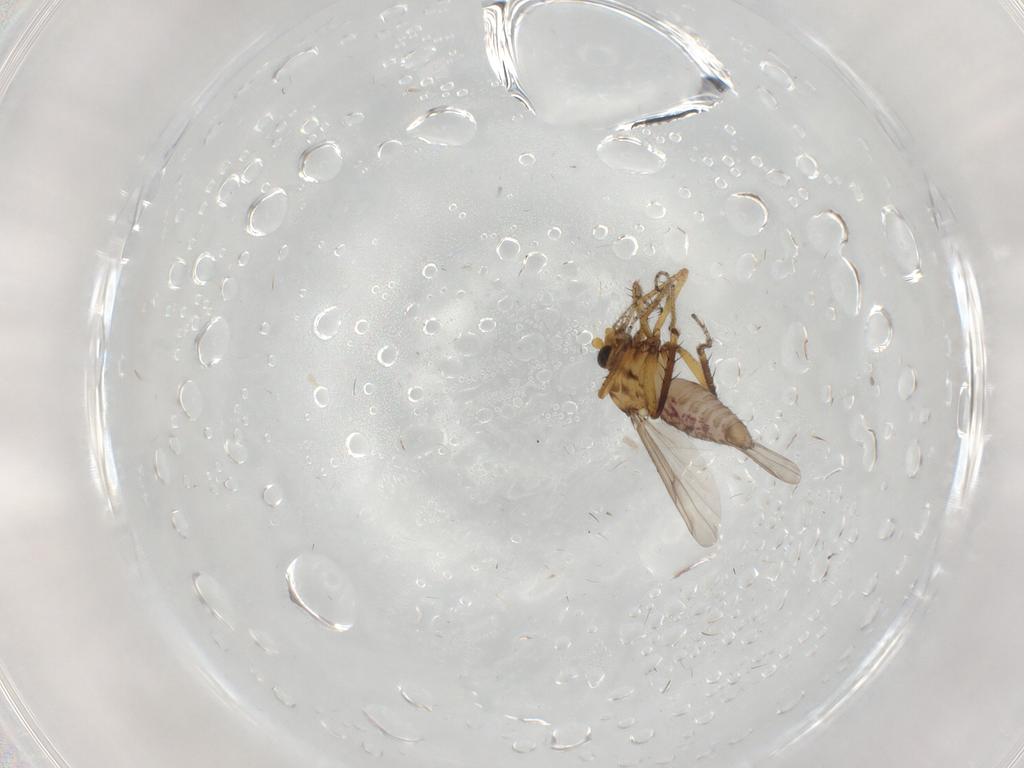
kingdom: Animalia
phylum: Arthropoda
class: Insecta
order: Diptera
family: Ceratopogonidae
